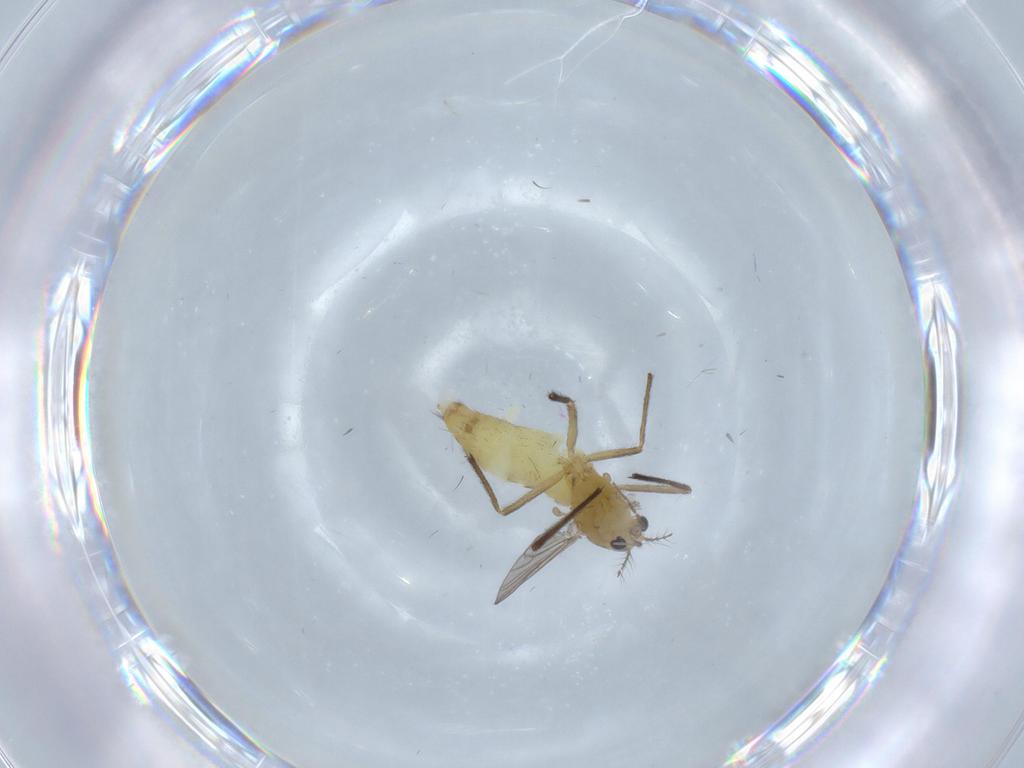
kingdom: Animalia
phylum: Arthropoda
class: Insecta
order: Diptera
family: Chironomidae
